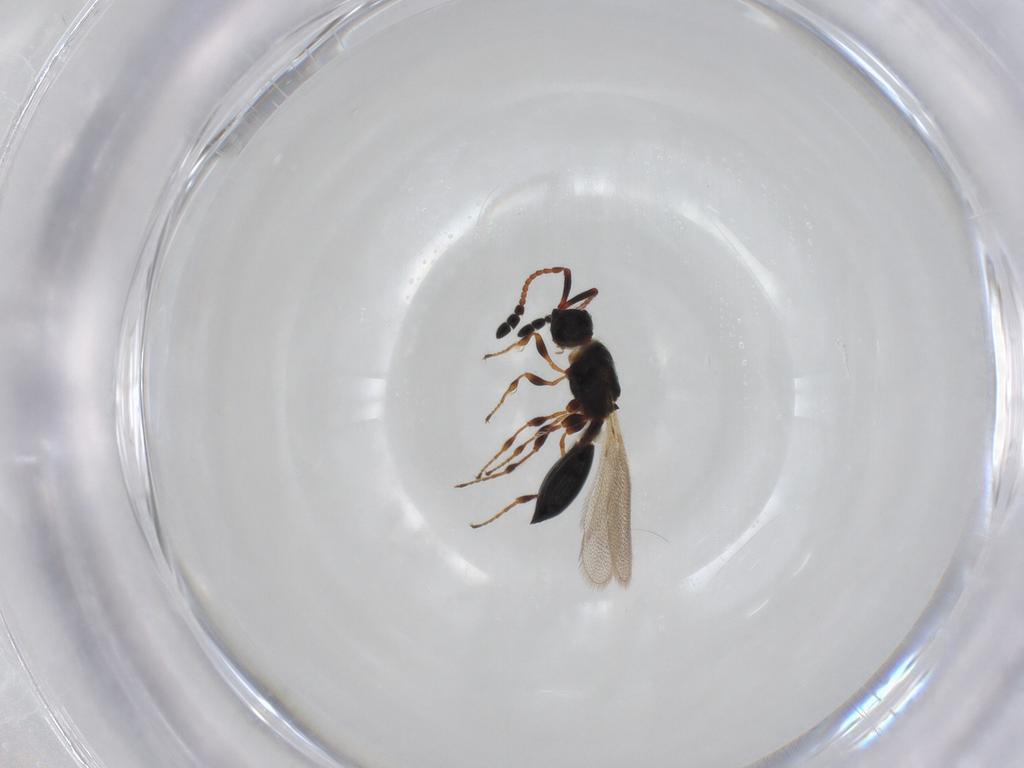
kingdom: Animalia
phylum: Arthropoda
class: Insecta
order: Hymenoptera
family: Diapriidae
